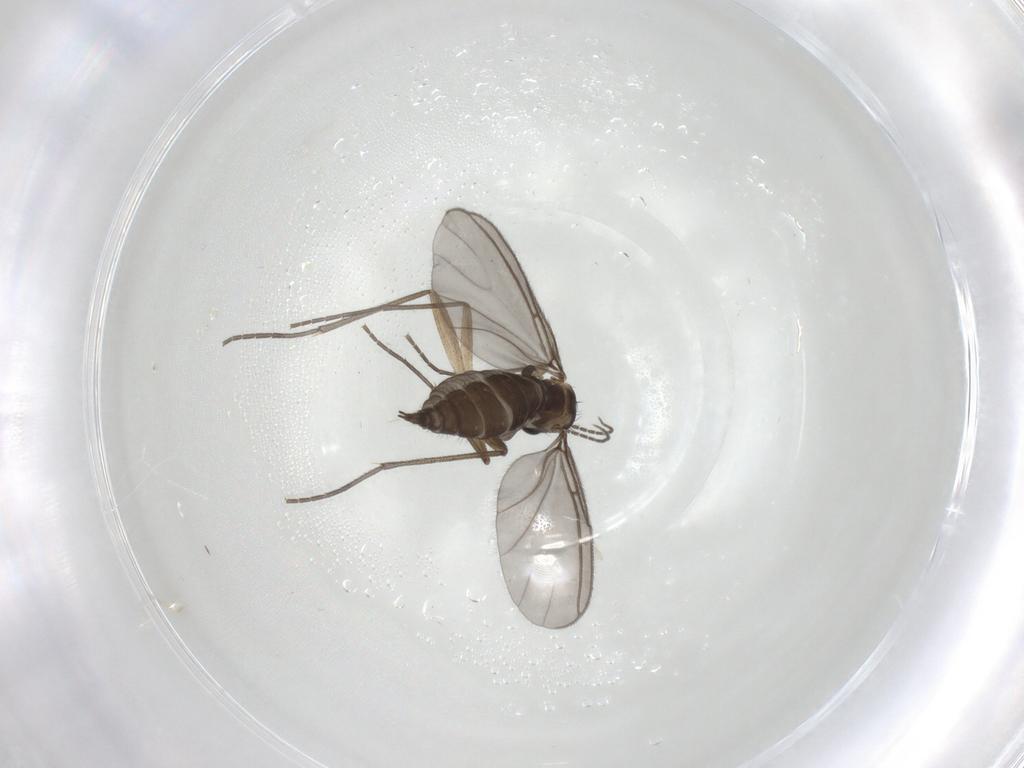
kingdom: Animalia
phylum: Arthropoda
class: Insecta
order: Diptera
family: Sciaridae
